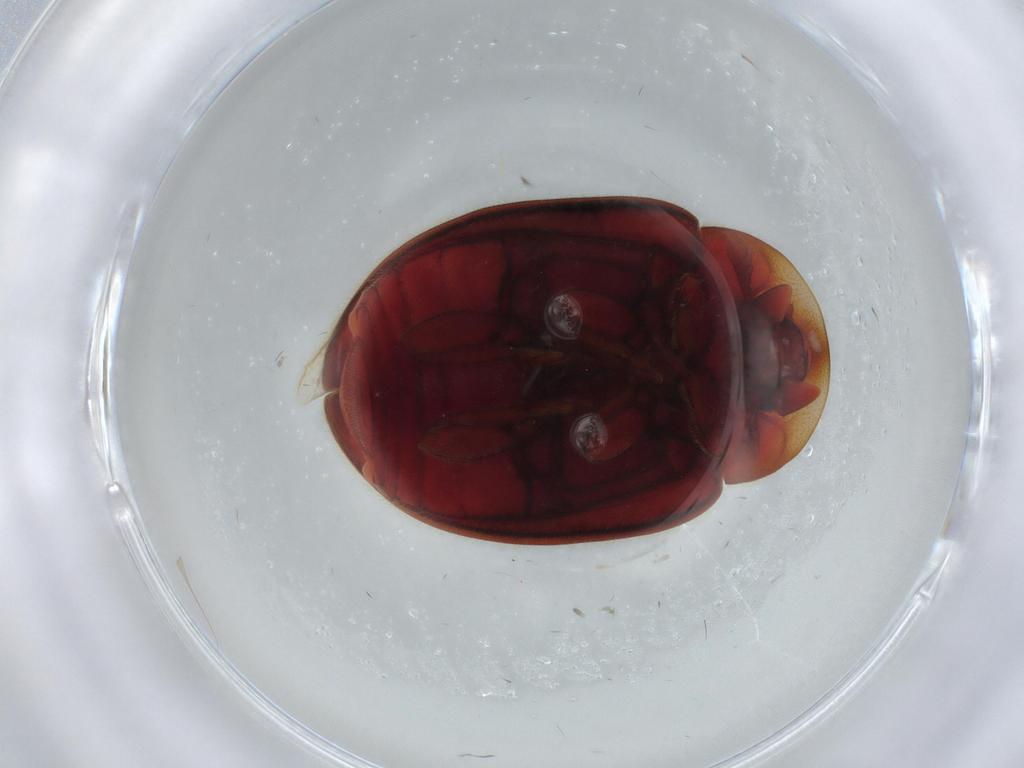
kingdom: Animalia
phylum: Arthropoda
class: Insecta
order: Coleoptera
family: Coccinellidae
